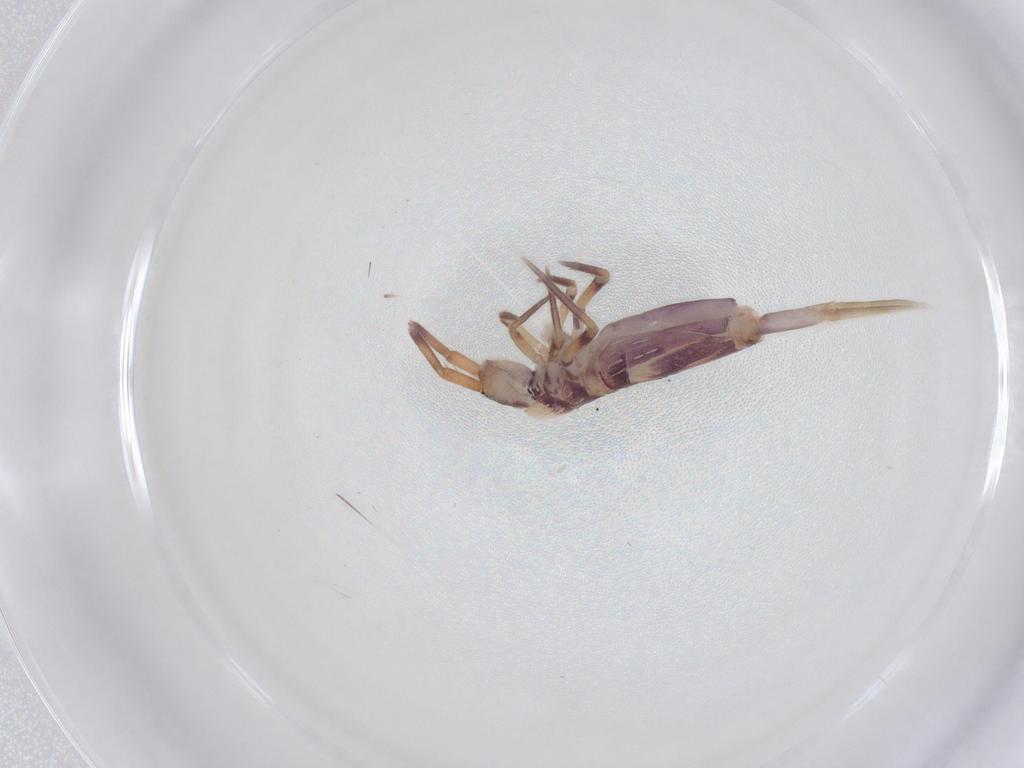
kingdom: Animalia
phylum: Arthropoda
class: Collembola
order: Entomobryomorpha
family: Entomobryidae
